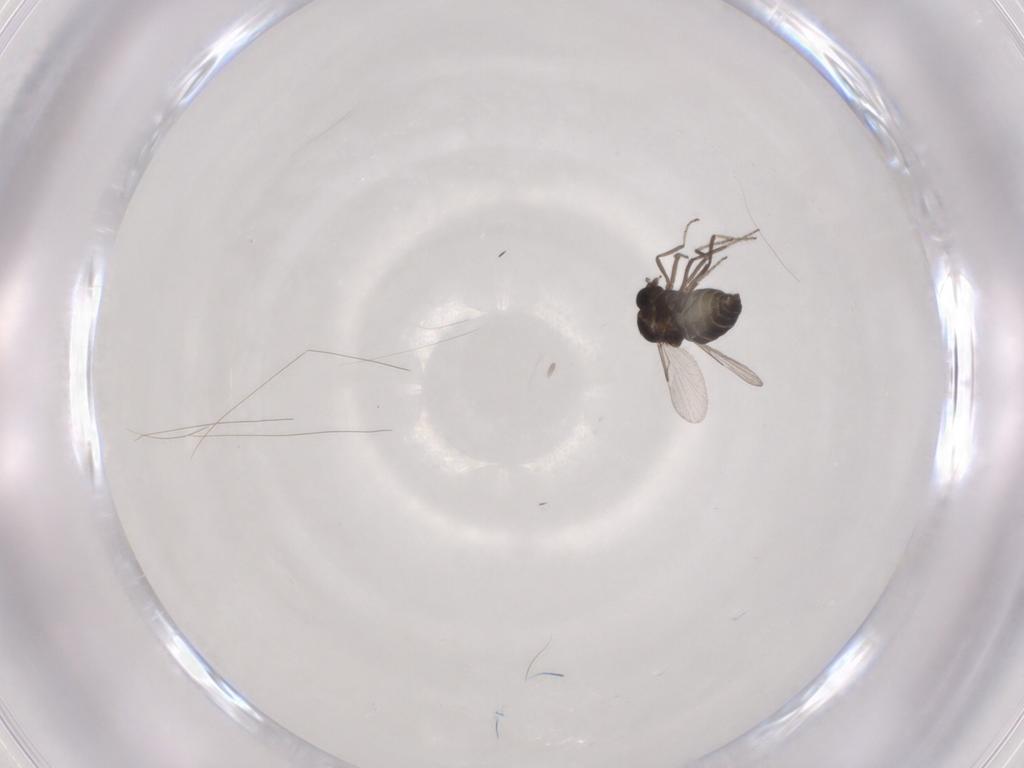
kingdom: Animalia
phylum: Arthropoda
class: Insecta
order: Diptera
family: Ceratopogonidae
